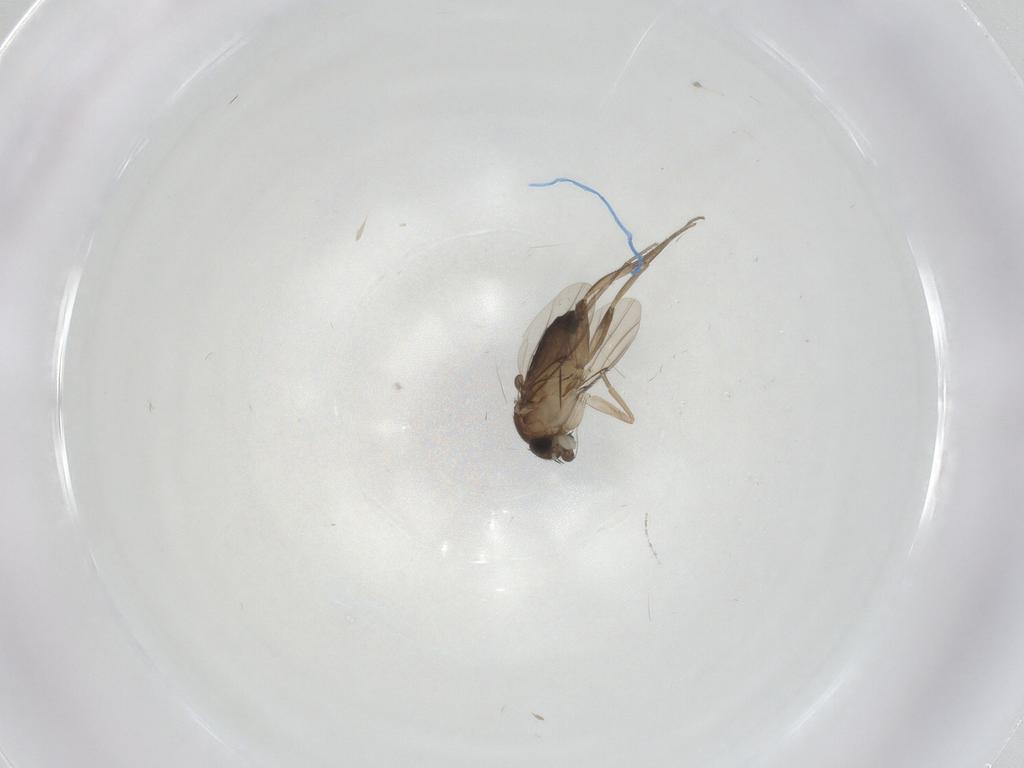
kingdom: Animalia
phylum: Arthropoda
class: Insecta
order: Diptera
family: Phoridae
